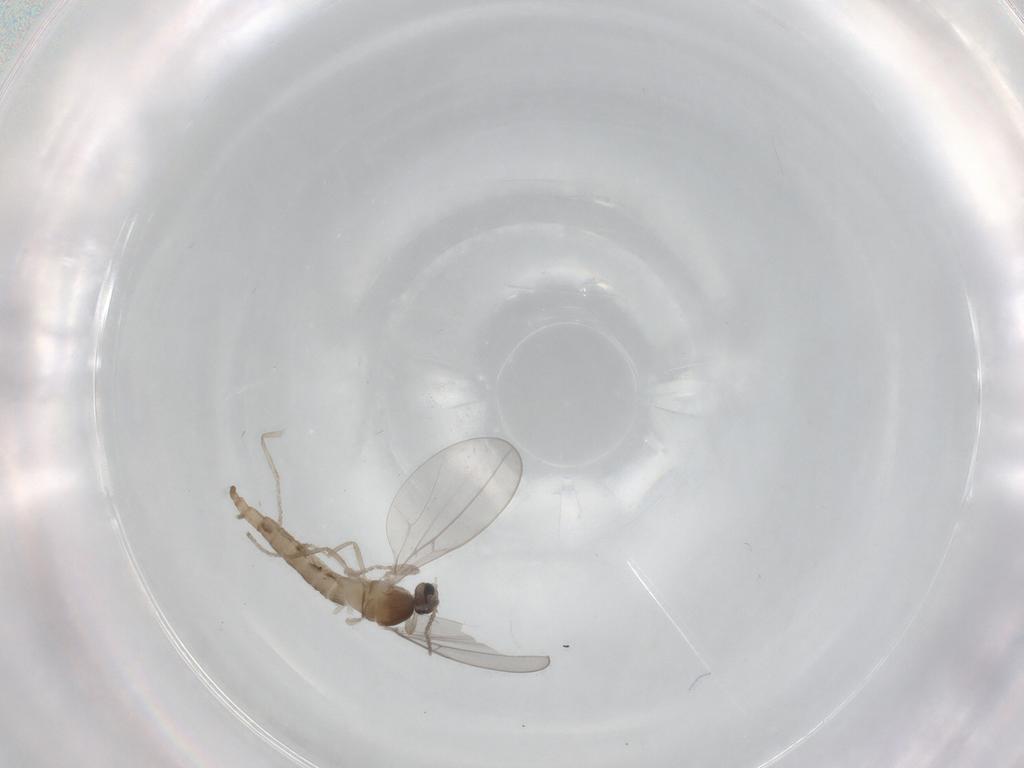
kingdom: Animalia
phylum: Arthropoda
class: Insecta
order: Diptera
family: Cecidomyiidae
